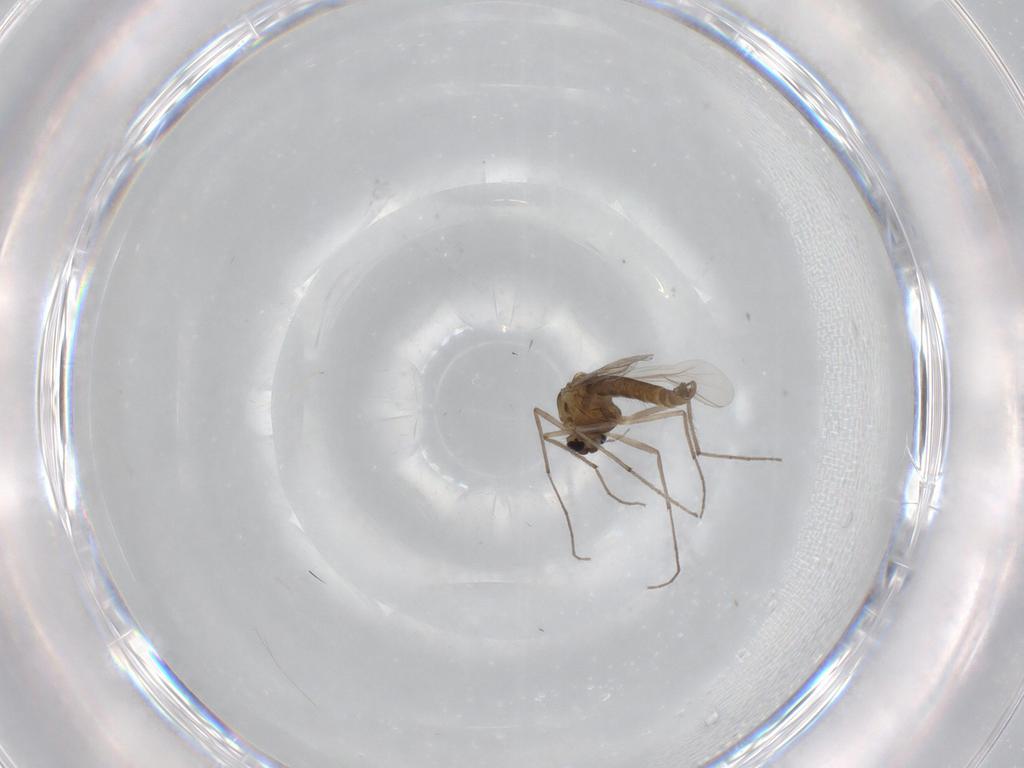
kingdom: Animalia
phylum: Arthropoda
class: Insecta
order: Diptera
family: Chironomidae
